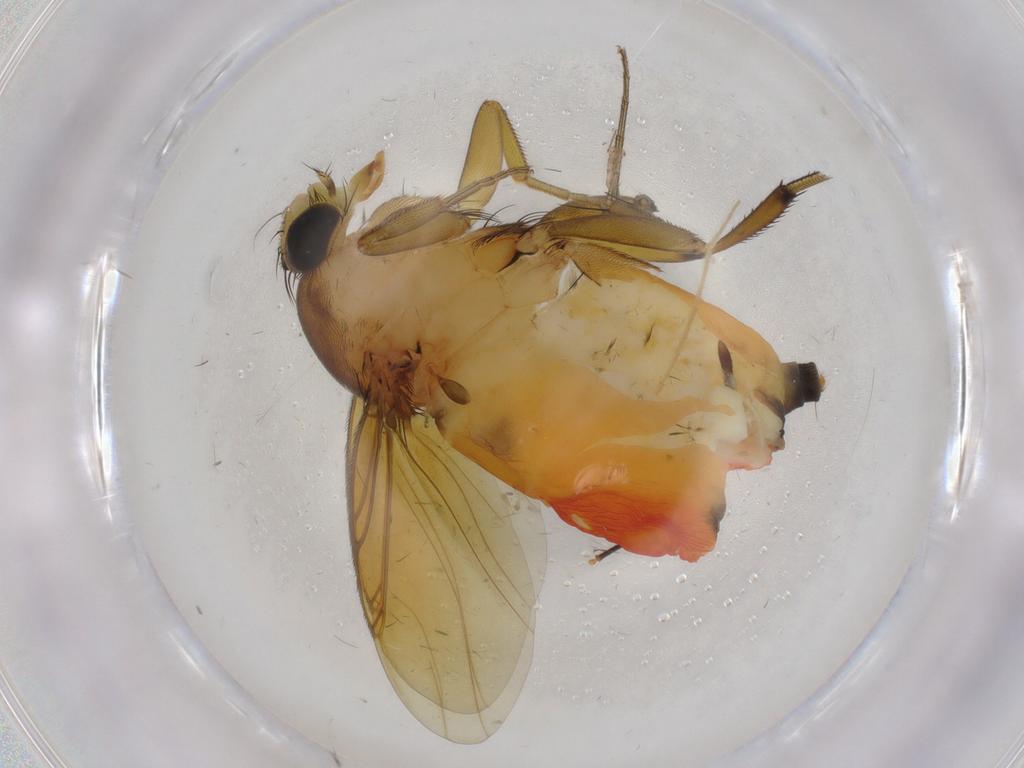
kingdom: Animalia
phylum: Arthropoda
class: Insecta
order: Diptera
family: Phoridae
